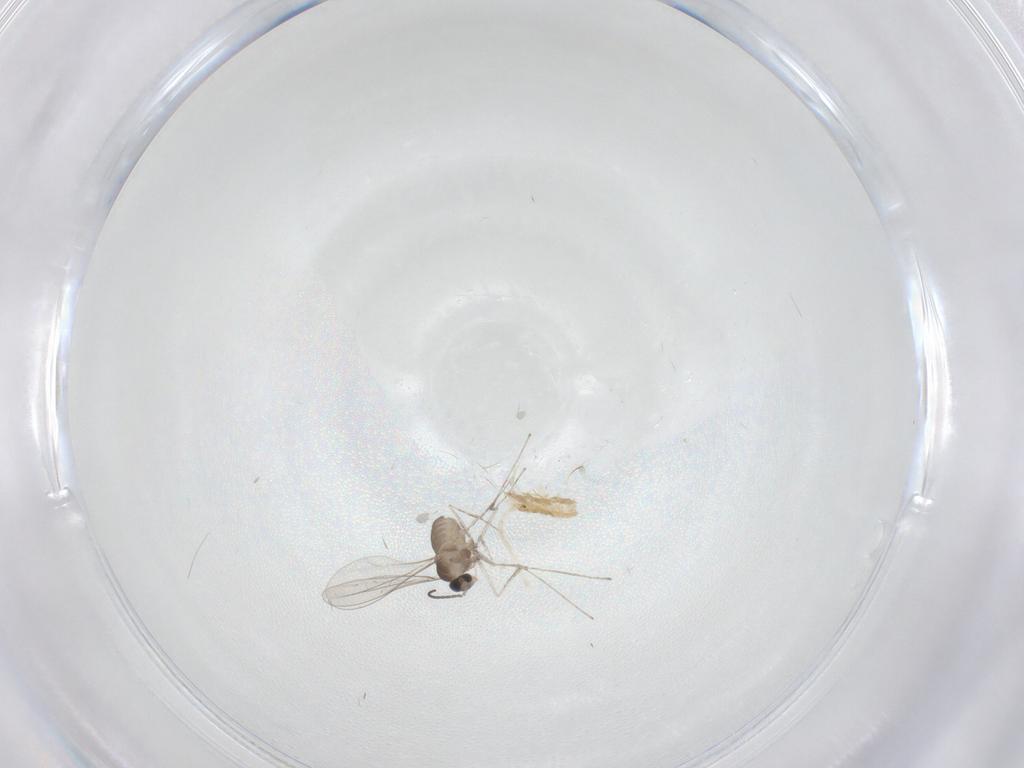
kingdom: Animalia
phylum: Arthropoda
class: Insecta
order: Diptera
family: Cecidomyiidae
